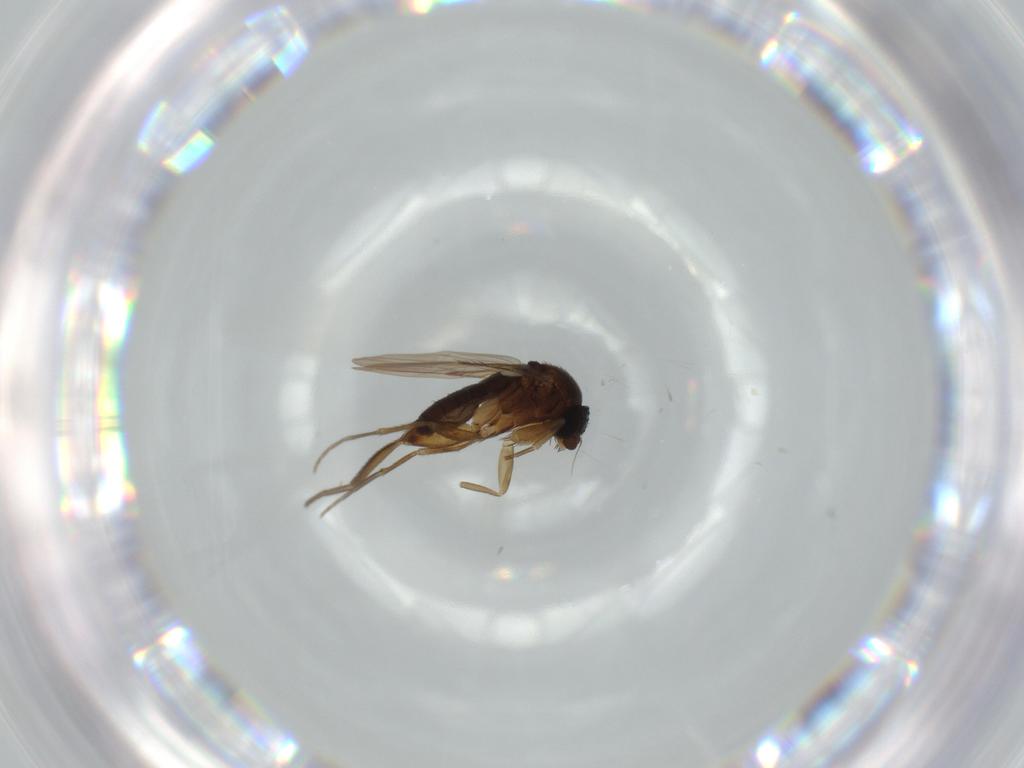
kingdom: Animalia
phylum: Arthropoda
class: Insecta
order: Diptera
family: Phoridae
